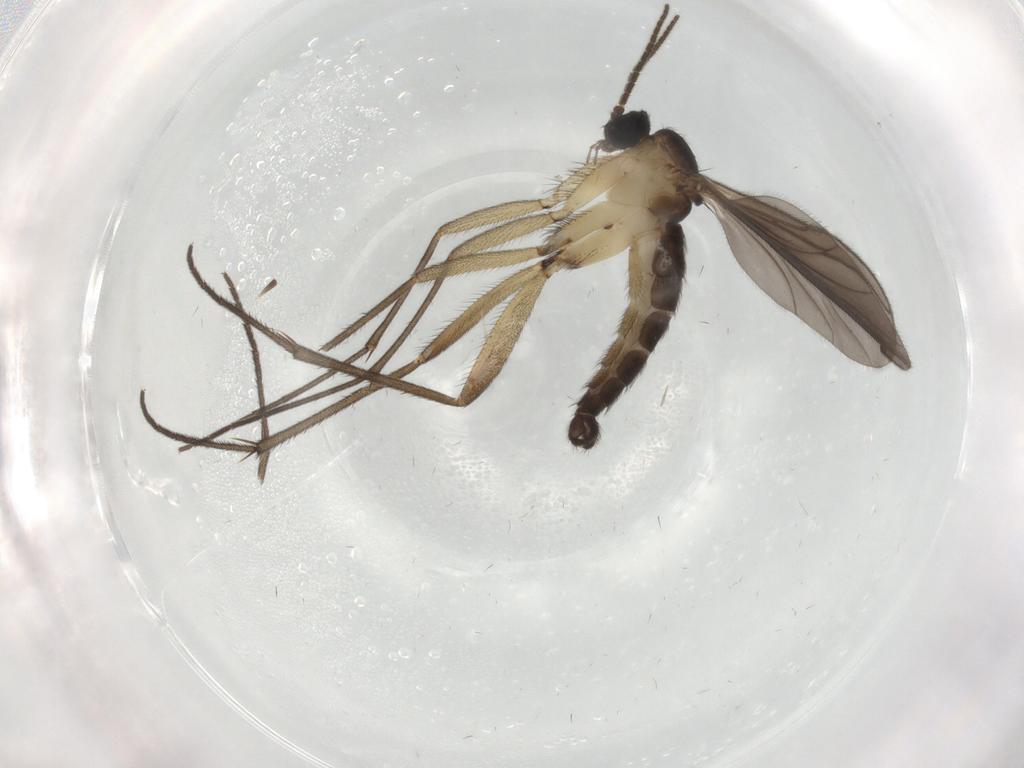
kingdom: Animalia
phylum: Arthropoda
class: Insecta
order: Diptera
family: Sciaridae
